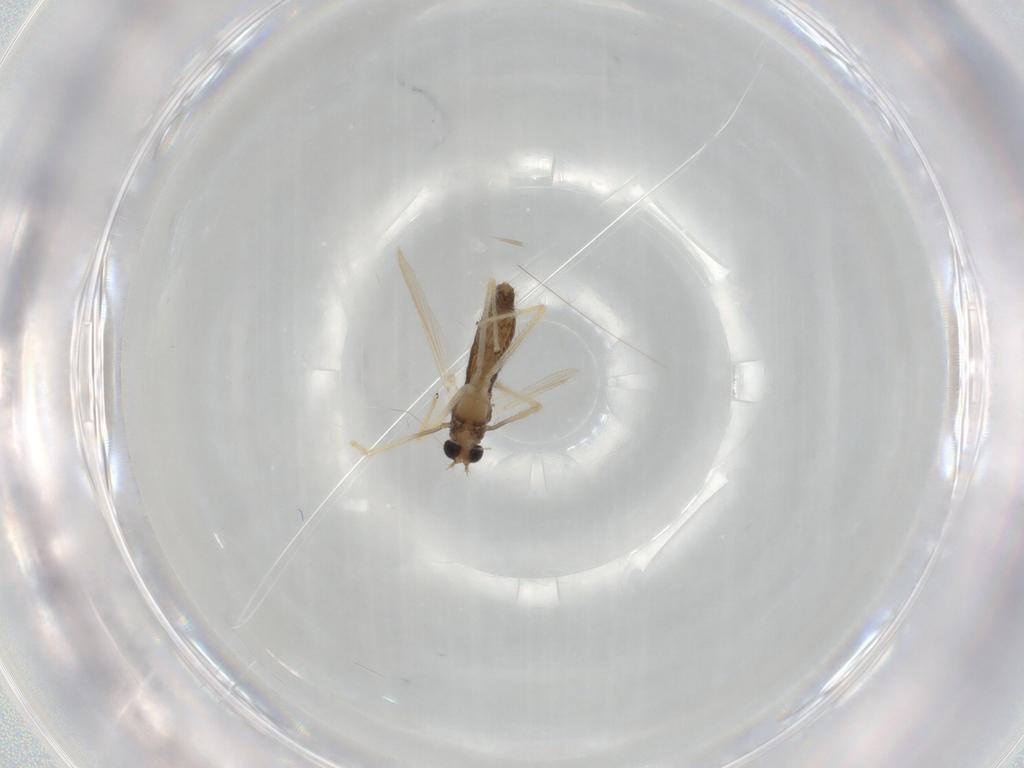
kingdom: Animalia
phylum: Arthropoda
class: Insecta
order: Diptera
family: Chironomidae
